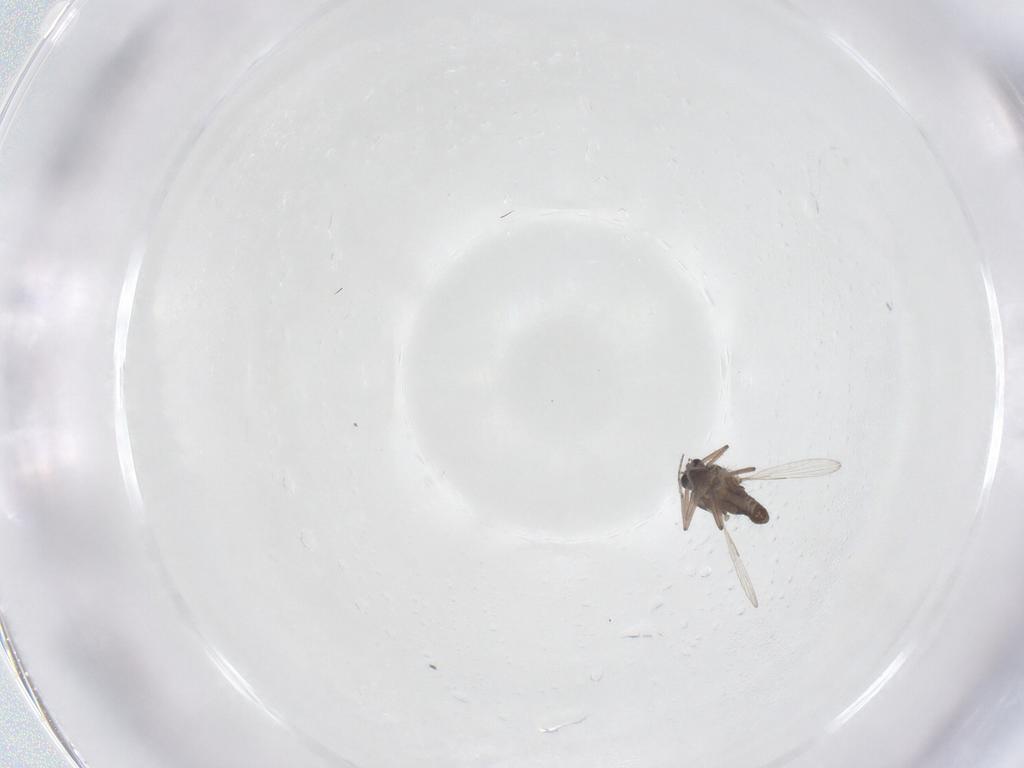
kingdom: Animalia
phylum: Arthropoda
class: Insecta
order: Diptera
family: Ceratopogonidae
